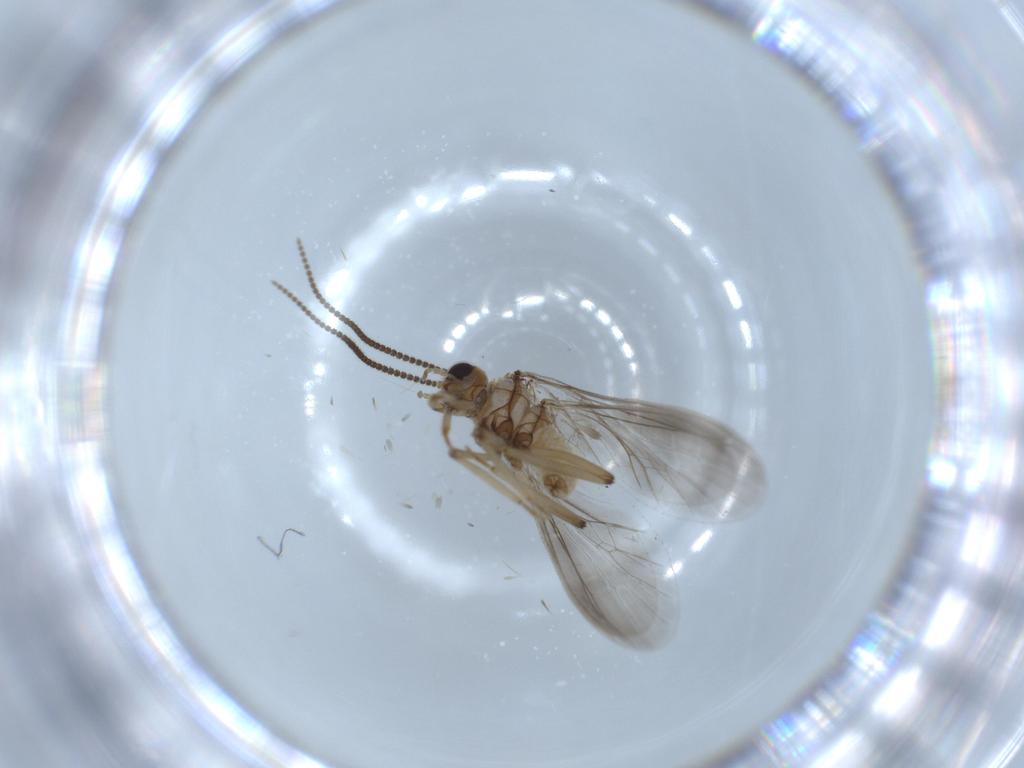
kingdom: Animalia
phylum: Arthropoda
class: Insecta
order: Neuroptera
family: Coniopterygidae
